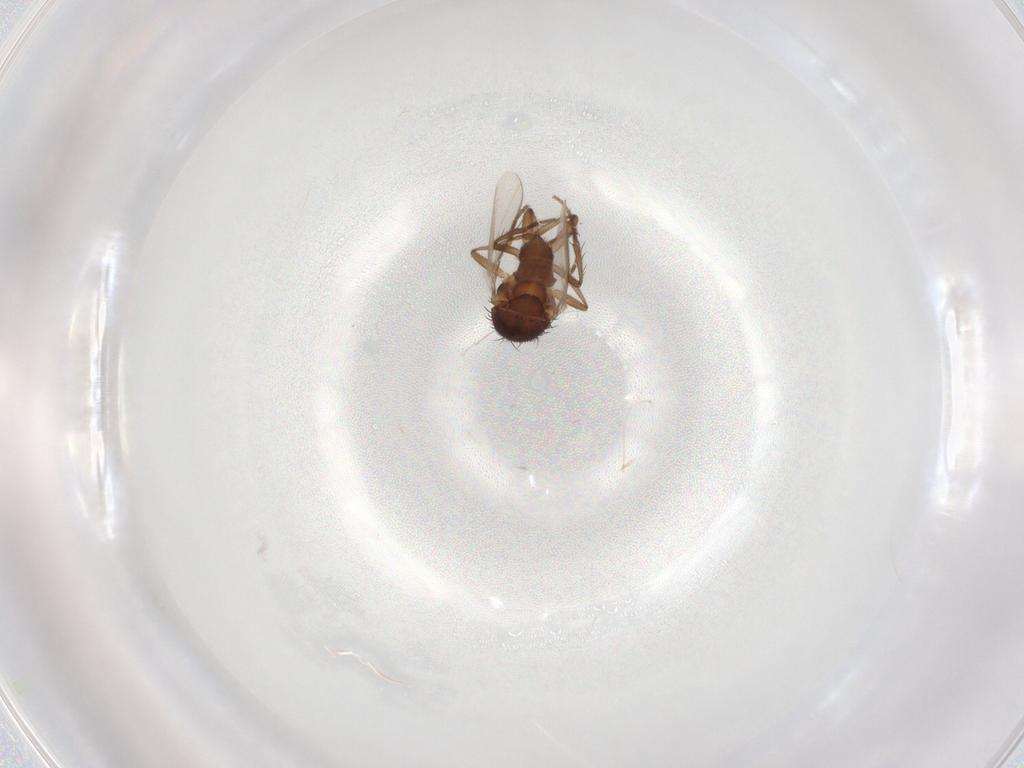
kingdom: Animalia
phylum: Arthropoda
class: Insecta
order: Diptera
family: Sphaeroceridae
